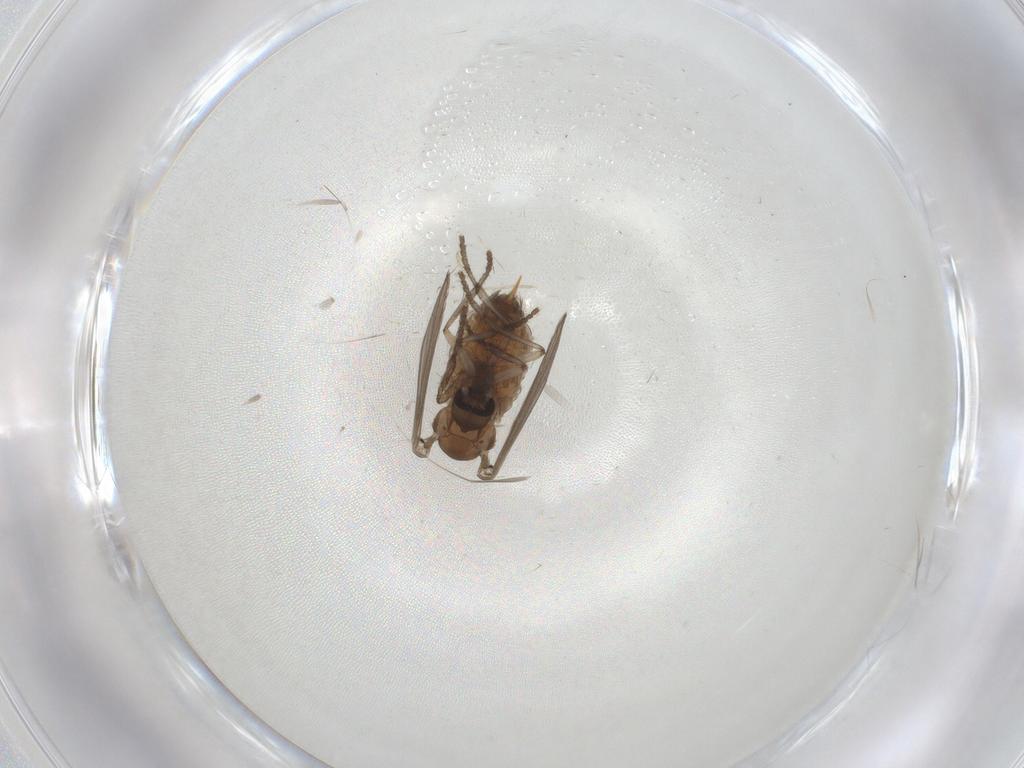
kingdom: Animalia
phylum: Arthropoda
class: Insecta
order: Diptera
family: Psychodidae
